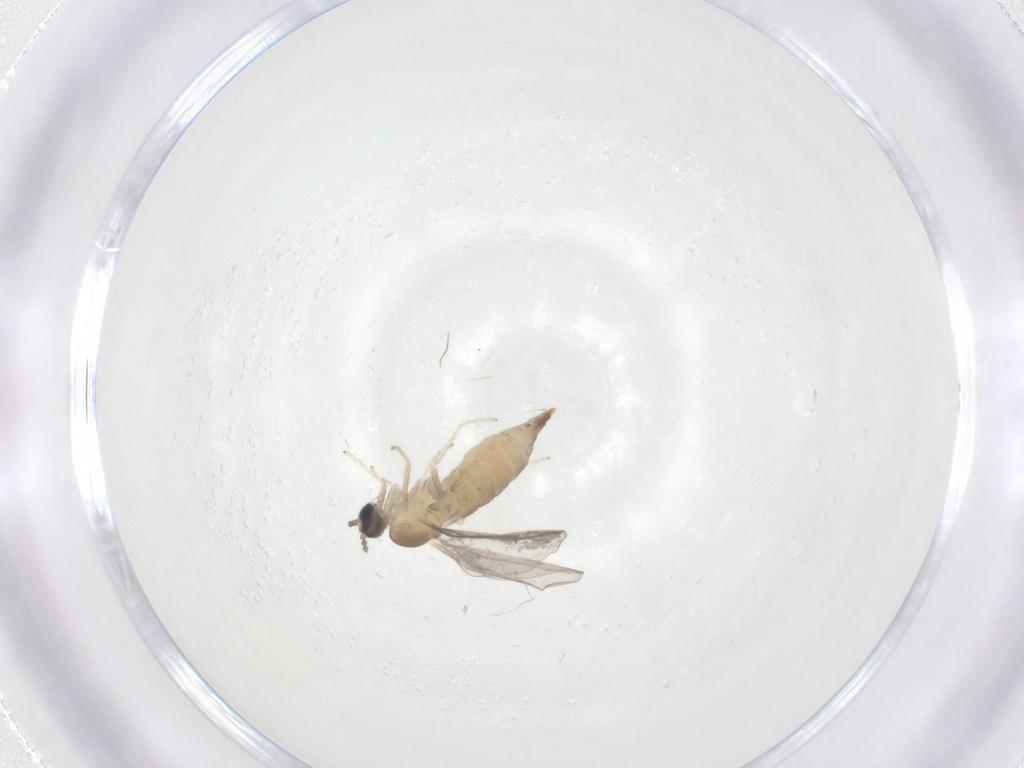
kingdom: Animalia
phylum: Arthropoda
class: Insecta
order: Diptera
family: Cecidomyiidae
